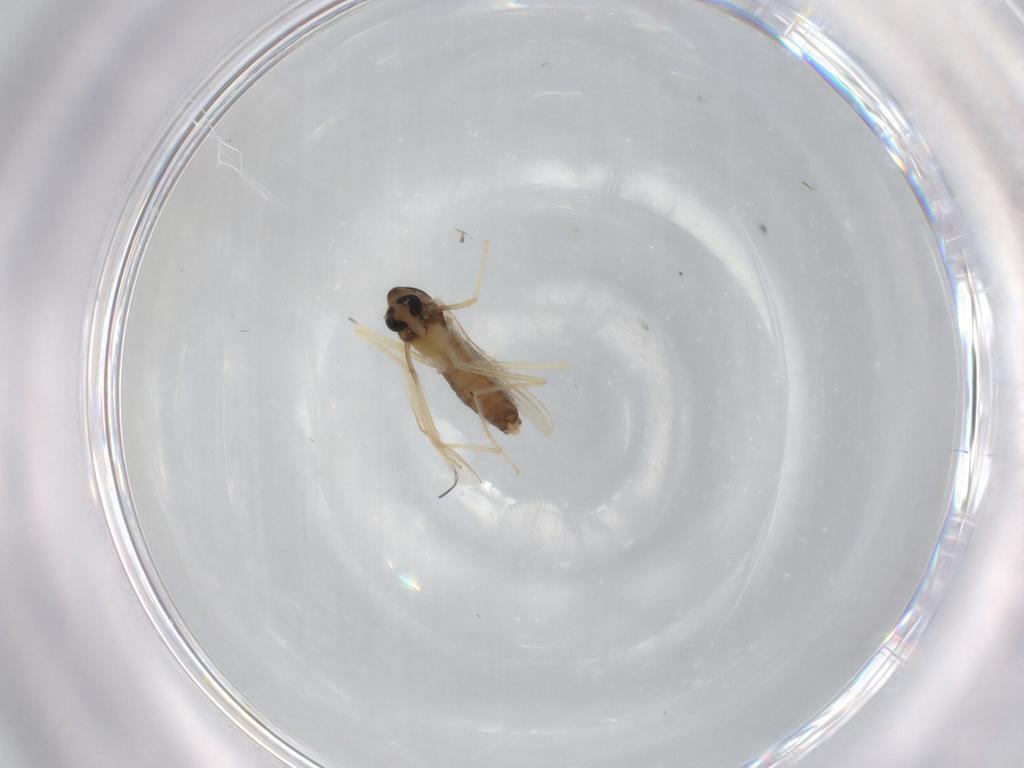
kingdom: Animalia
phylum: Arthropoda
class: Insecta
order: Diptera
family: Chironomidae
